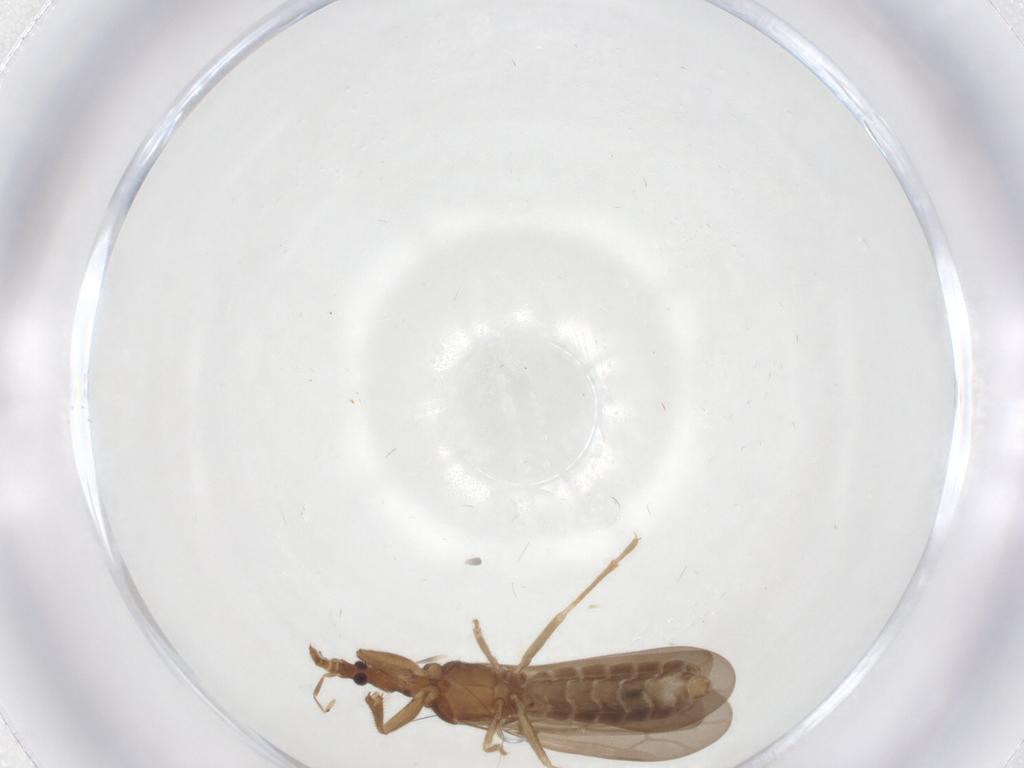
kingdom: Animalia
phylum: Arthropoda
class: Insecta
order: Hemiptera
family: Enicocephalidae
